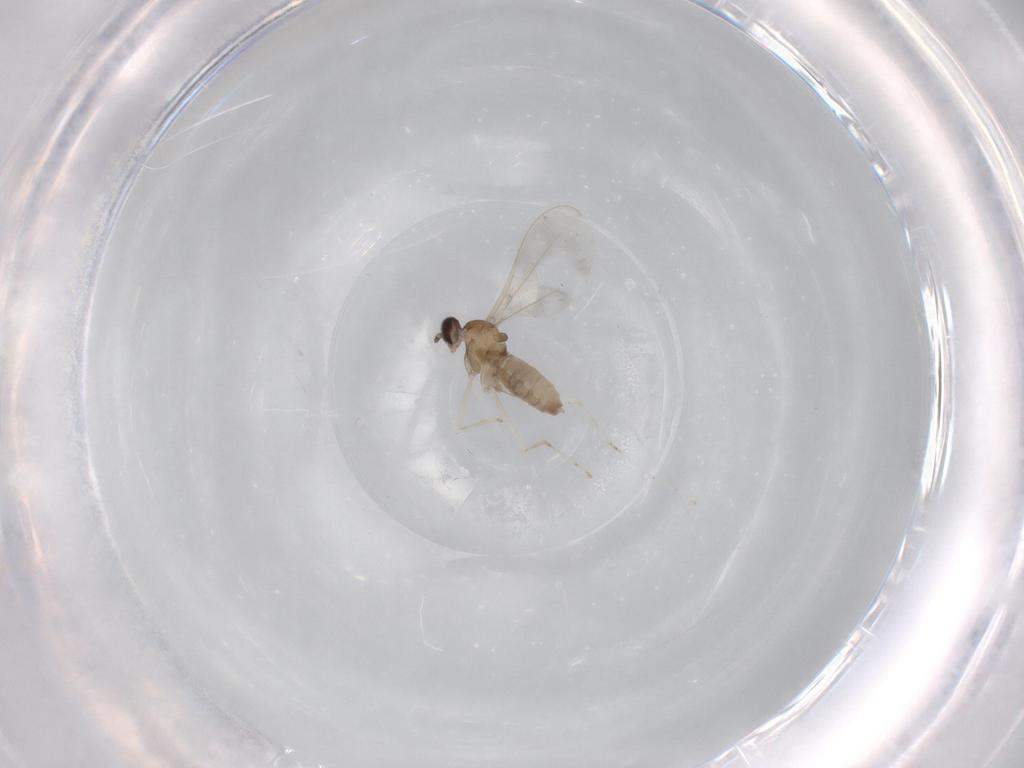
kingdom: Animalia
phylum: Arthropoda
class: Insecta
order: Diptera
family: Cecidomyiidae
